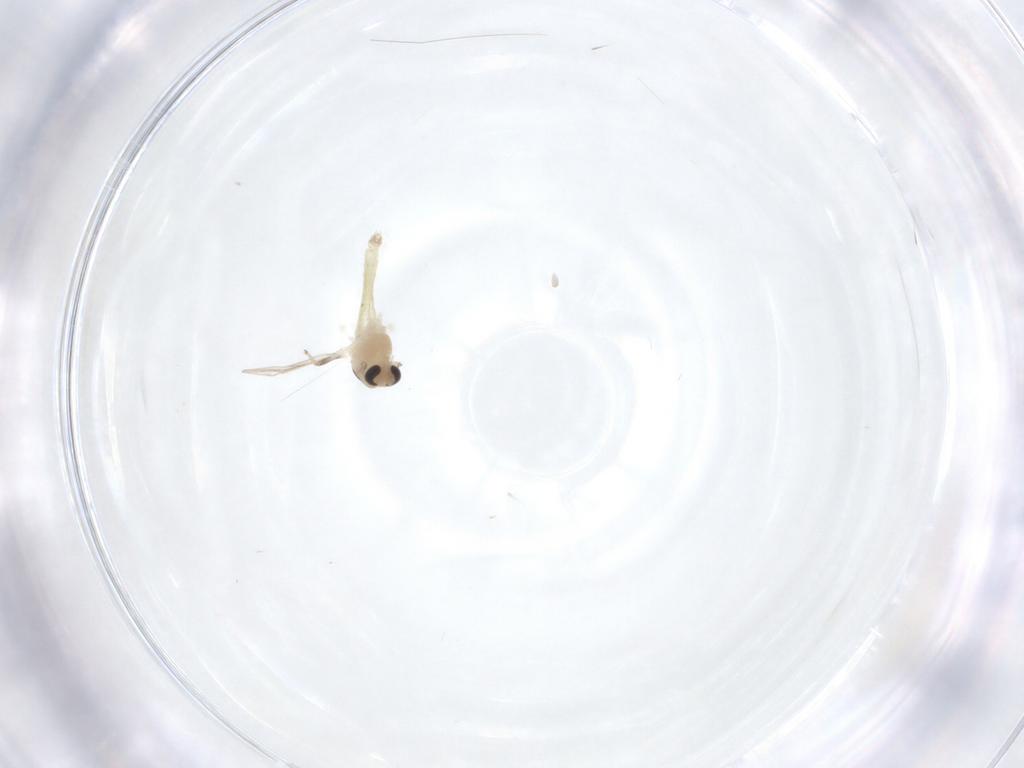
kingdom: Animalia
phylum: Arthropoda
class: Insecta
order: Diptera
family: Chironomidae
